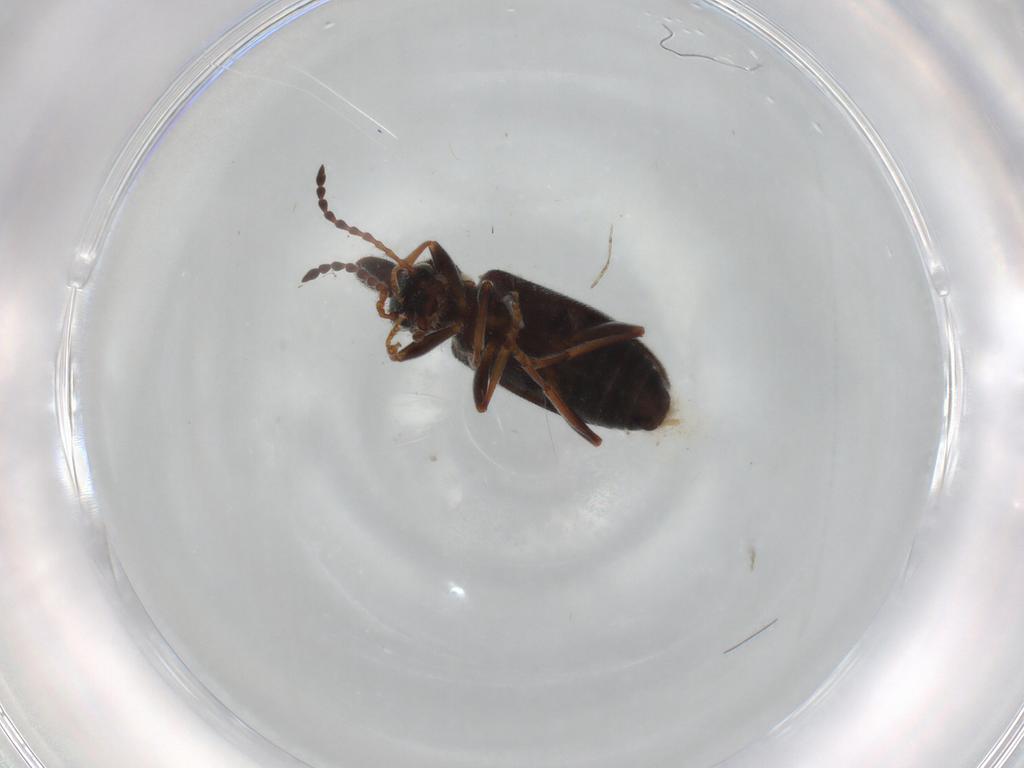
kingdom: Animalia
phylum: Arthropoda
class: Insecta
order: Coleoptera
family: Anthicidae
